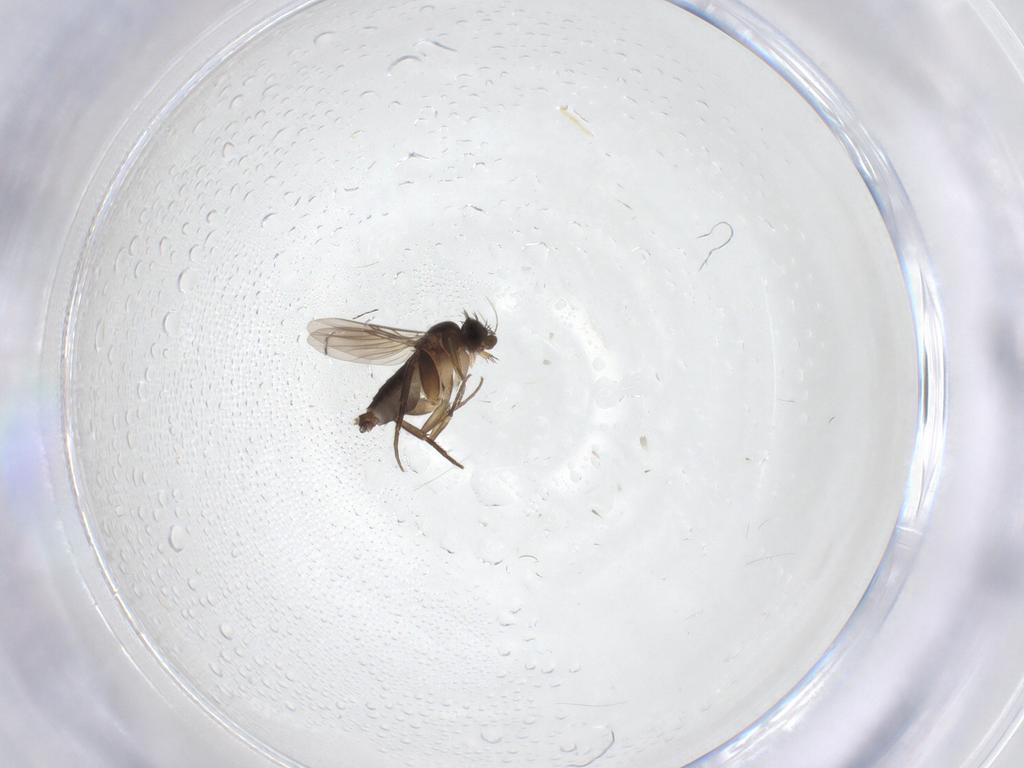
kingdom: Animalia
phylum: Arthropoda
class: Insecta
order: Diptera
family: Phoridae
